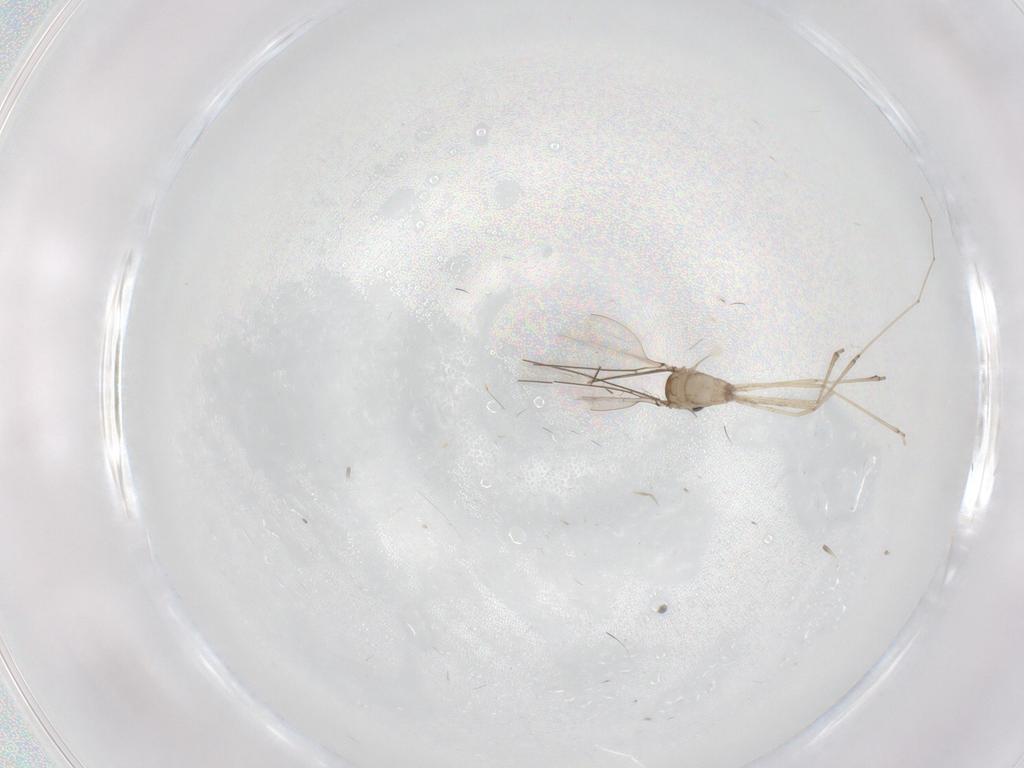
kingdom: Animalia
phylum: Arthropoda
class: Insecta
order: Diptera
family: Cecidomyiidae
